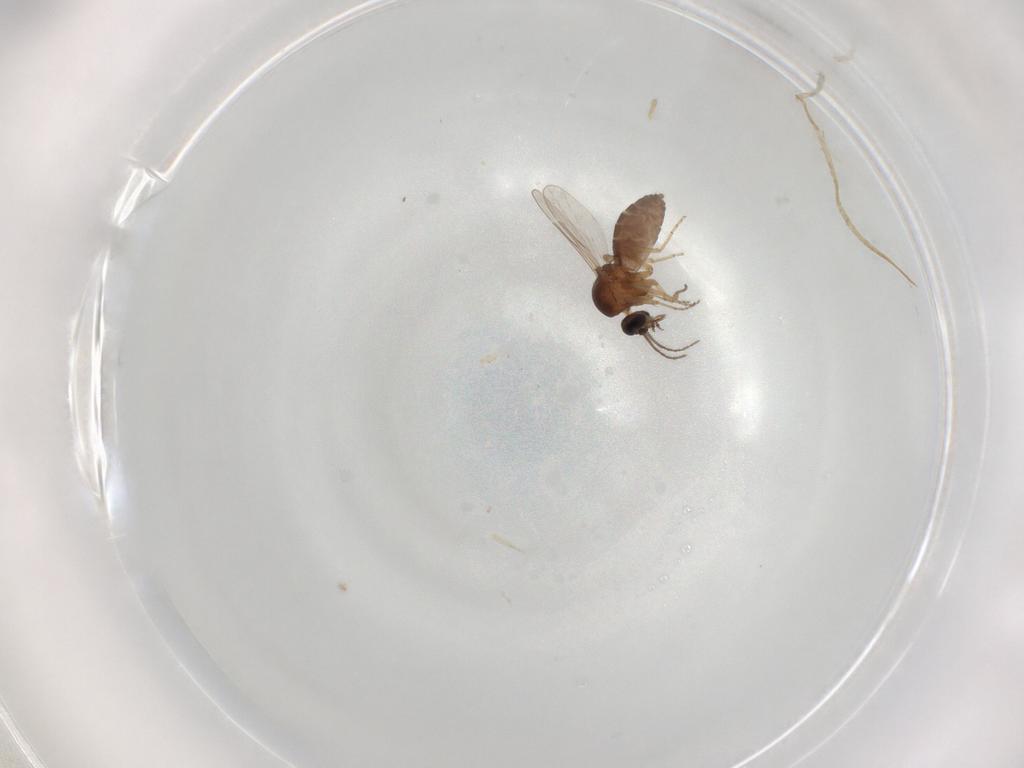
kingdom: Animalia
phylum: Arthropoda
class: Insecta
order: Diptera
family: Ceratopogonidae
